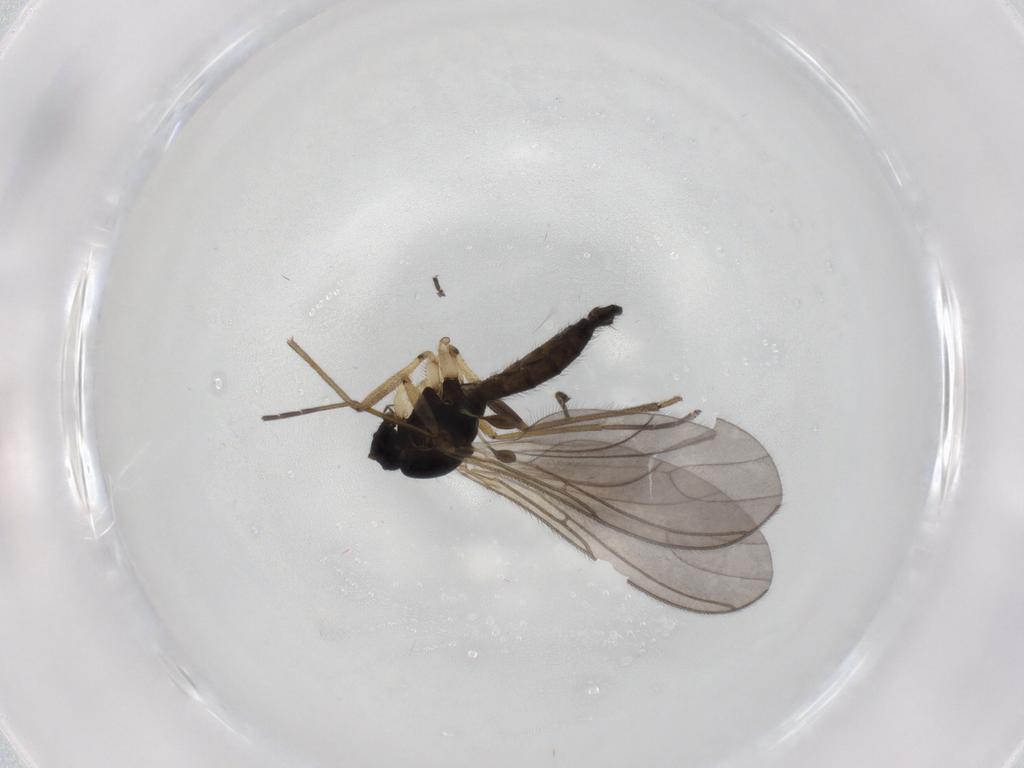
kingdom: Animalia
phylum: Arthropoda
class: Insecta
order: Diptera
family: Sciaridae
